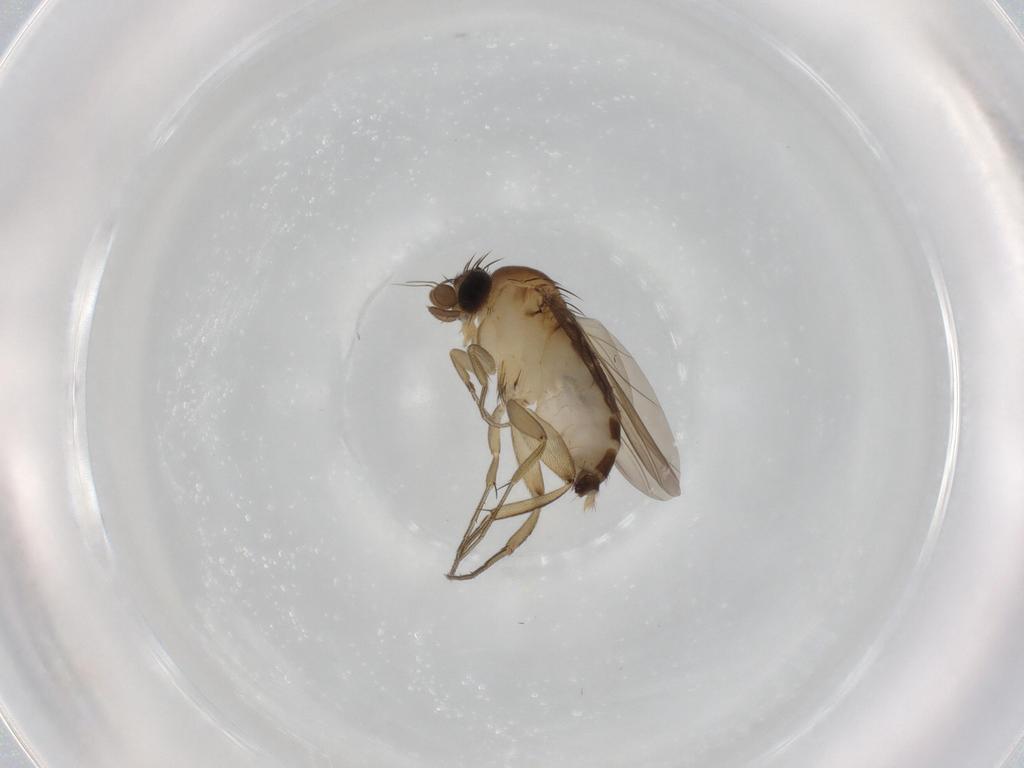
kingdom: Animalia
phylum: Arthropoda
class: Insecta
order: Diptera
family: Phoridae
